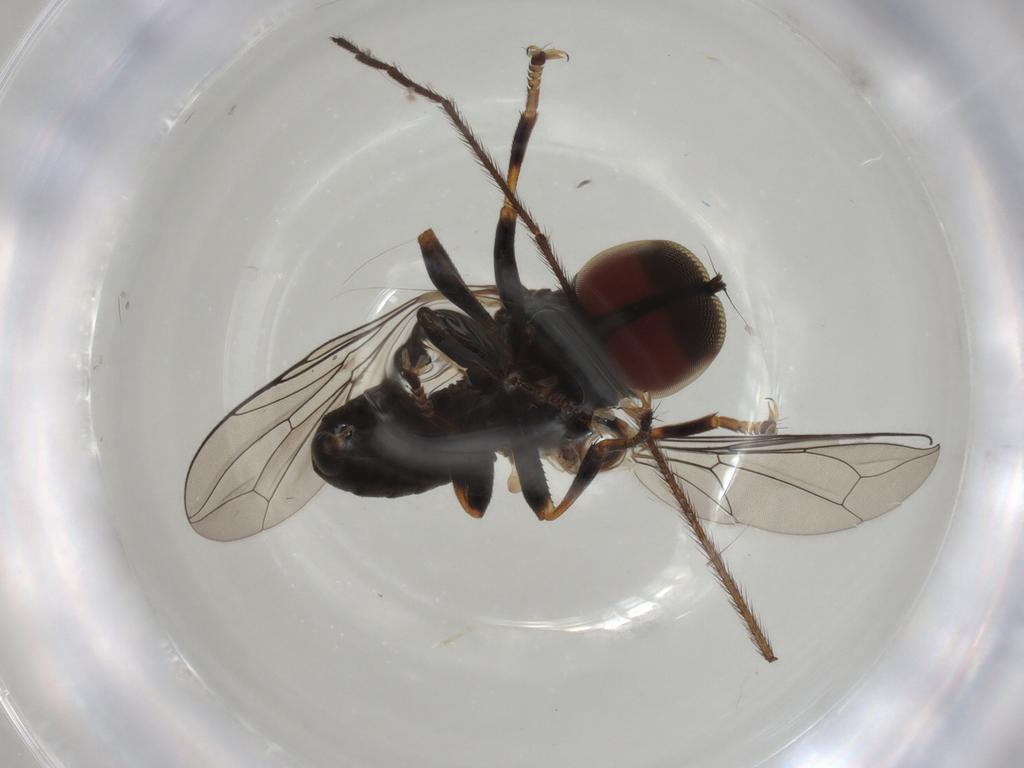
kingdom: Animalia
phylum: Arthropoda
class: Insecta
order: Diptera
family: Pipunculidae
